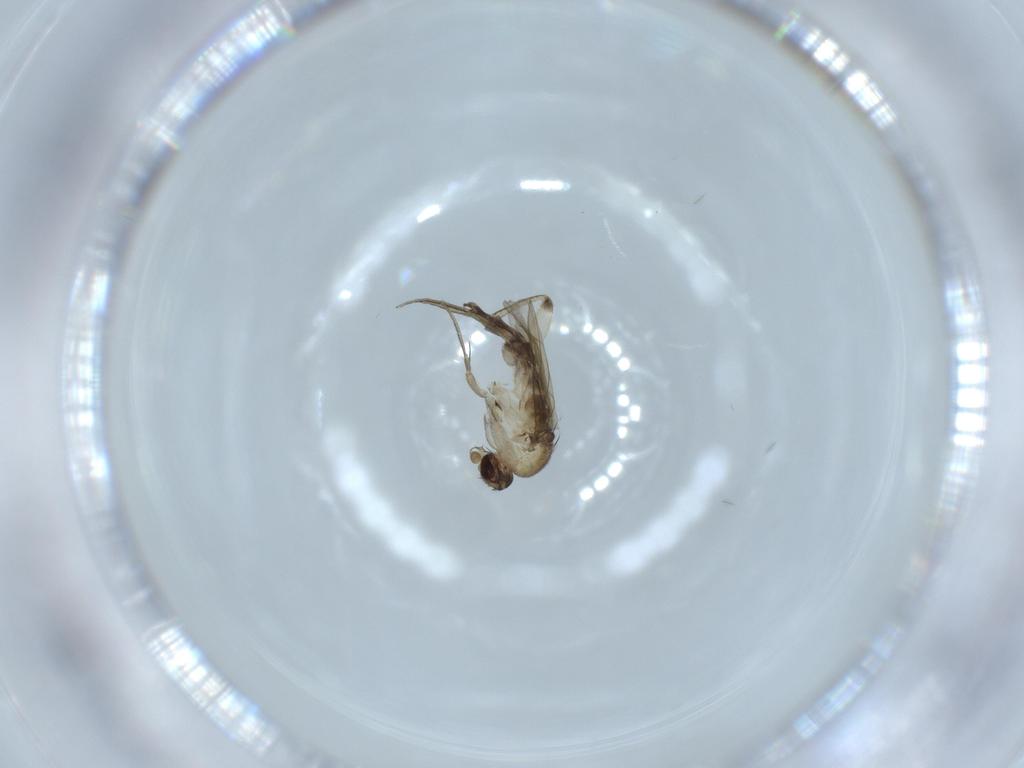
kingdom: Animalia
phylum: Arthropoda
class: Insecta
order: Diptera
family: Phoridae
